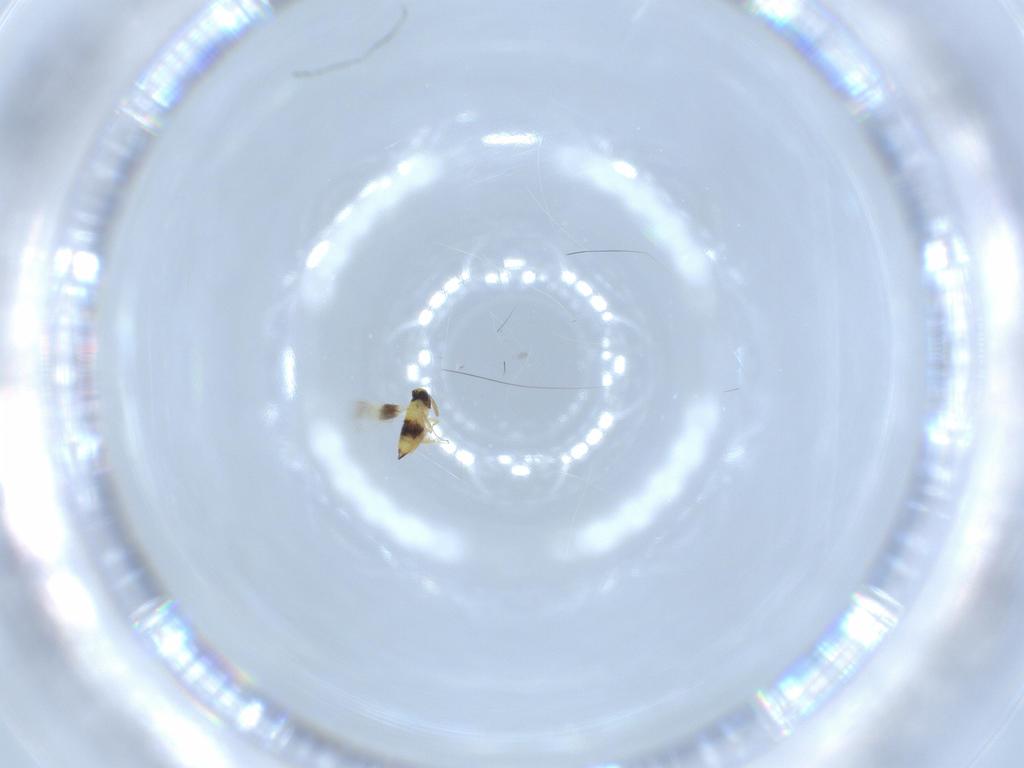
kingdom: Animalia
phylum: Arthropoda
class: Insecta
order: Hymenoptera
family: Signiphoridae
